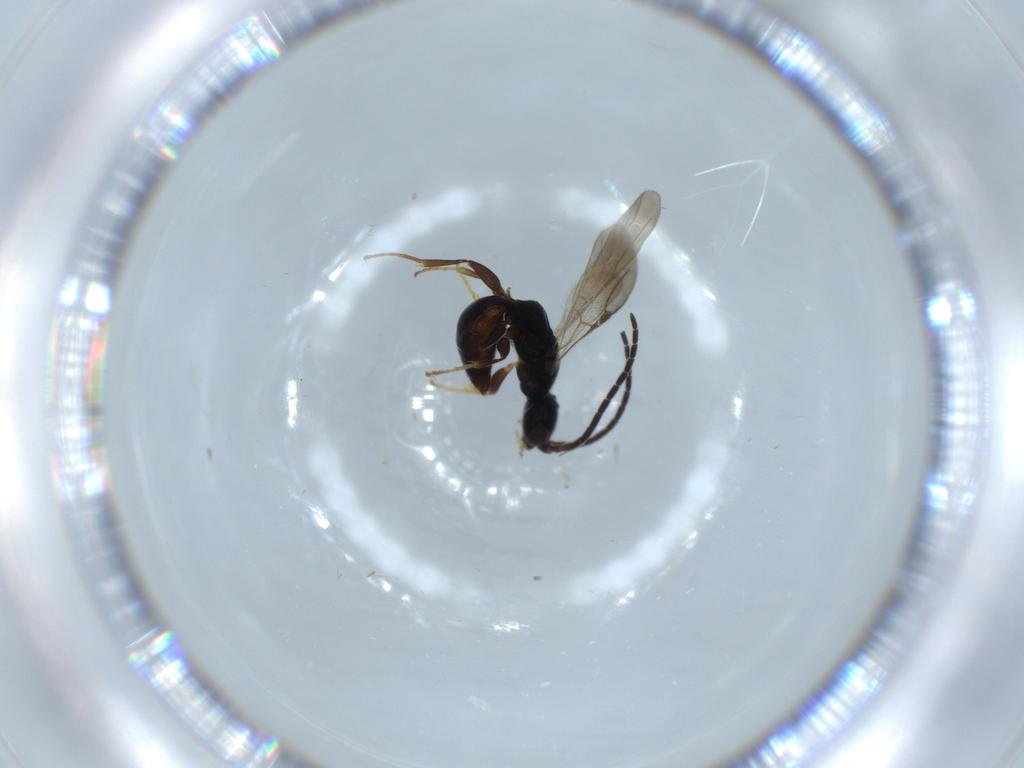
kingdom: Animalia
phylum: Arthropoda
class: Insecta
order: Hymenoptera
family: Bethylidae
